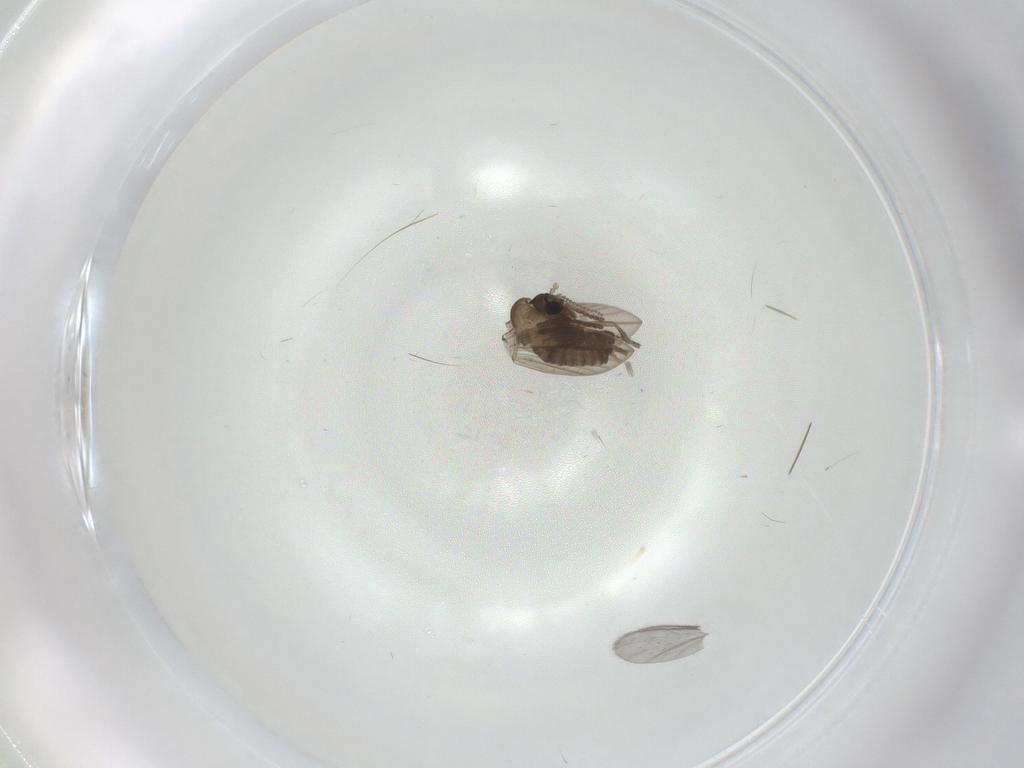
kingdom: Animalia
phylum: Arthropoda
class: Insecta
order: Diptera
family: Psychodidae
